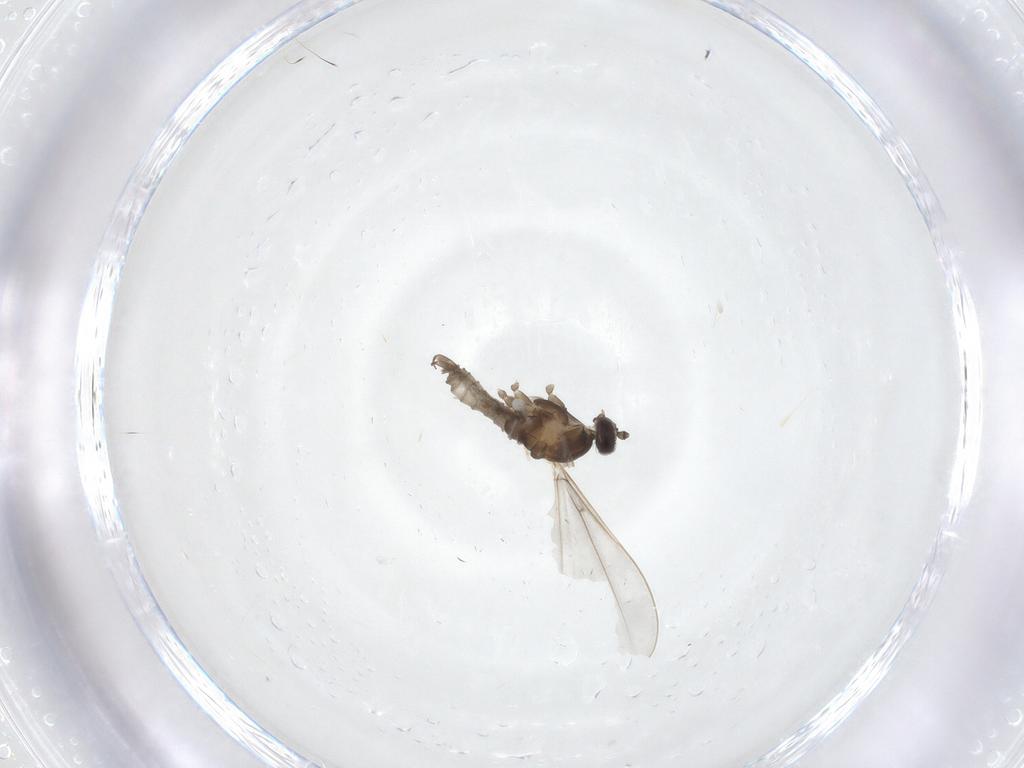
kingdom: Animalia
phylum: Arthropoda
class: Insecta
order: Diptera
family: Cecidomyiidae
